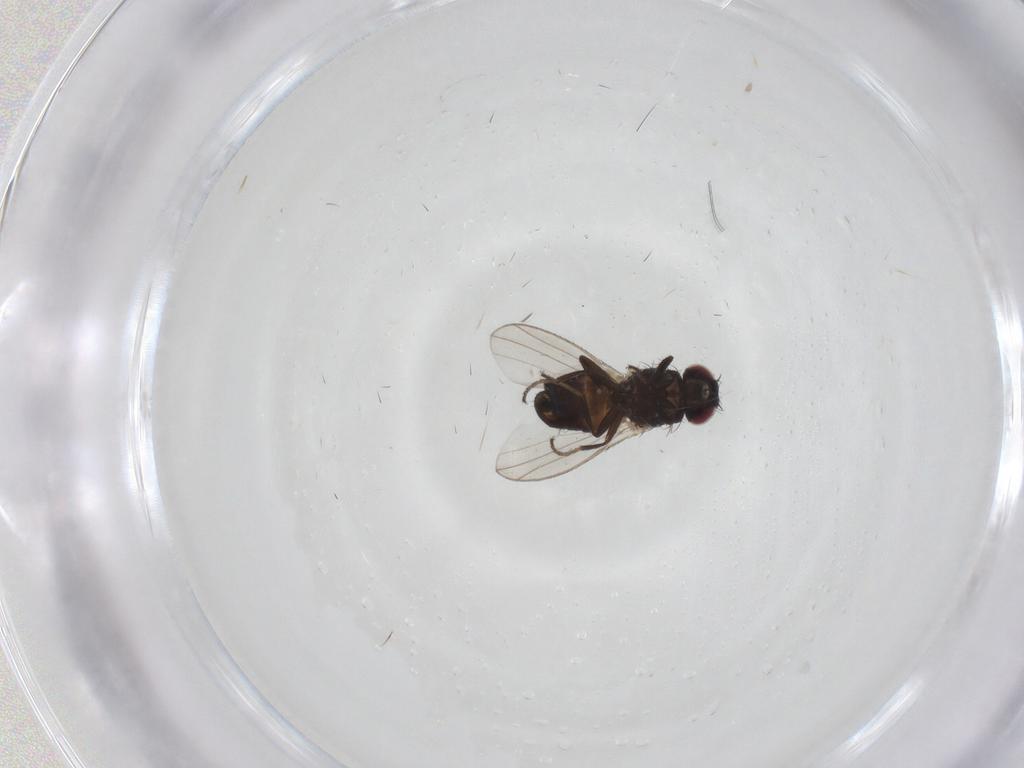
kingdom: Animalia
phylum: Arthropoda
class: Insecta
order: Diptera
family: Carnidae
